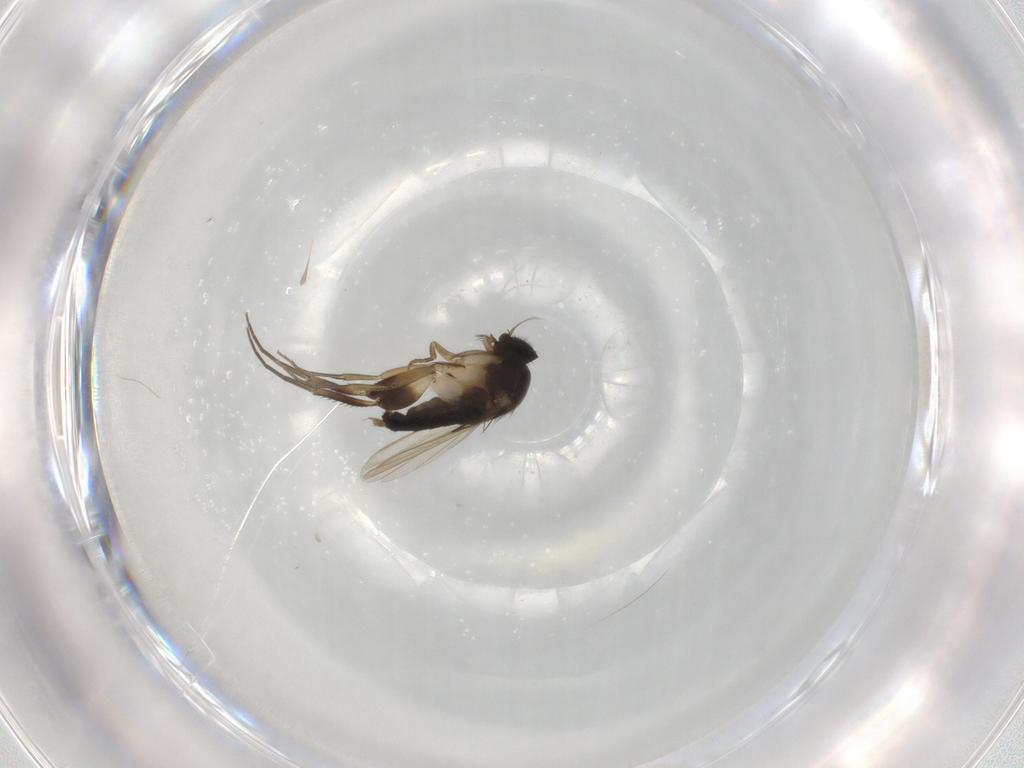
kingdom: Animalia
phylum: Arthropoda
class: Insecta
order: Diptera
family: Phoridae
